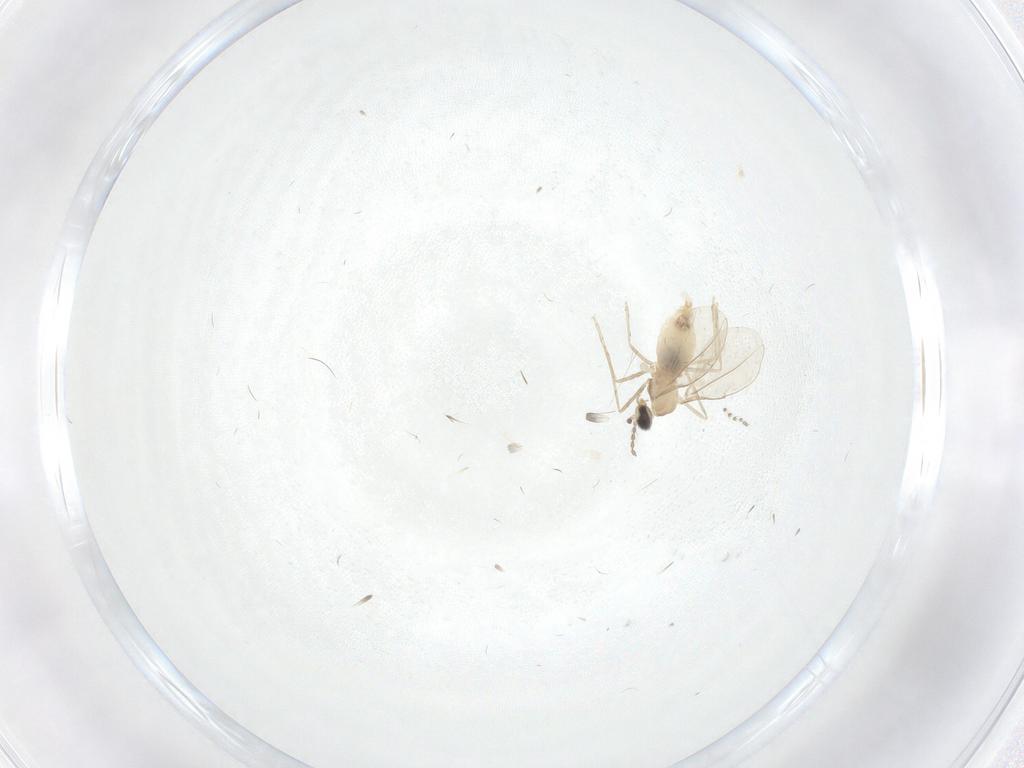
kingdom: Animalia
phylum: Arthropoda
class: Insecta
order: Diptera
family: Psychodidae
